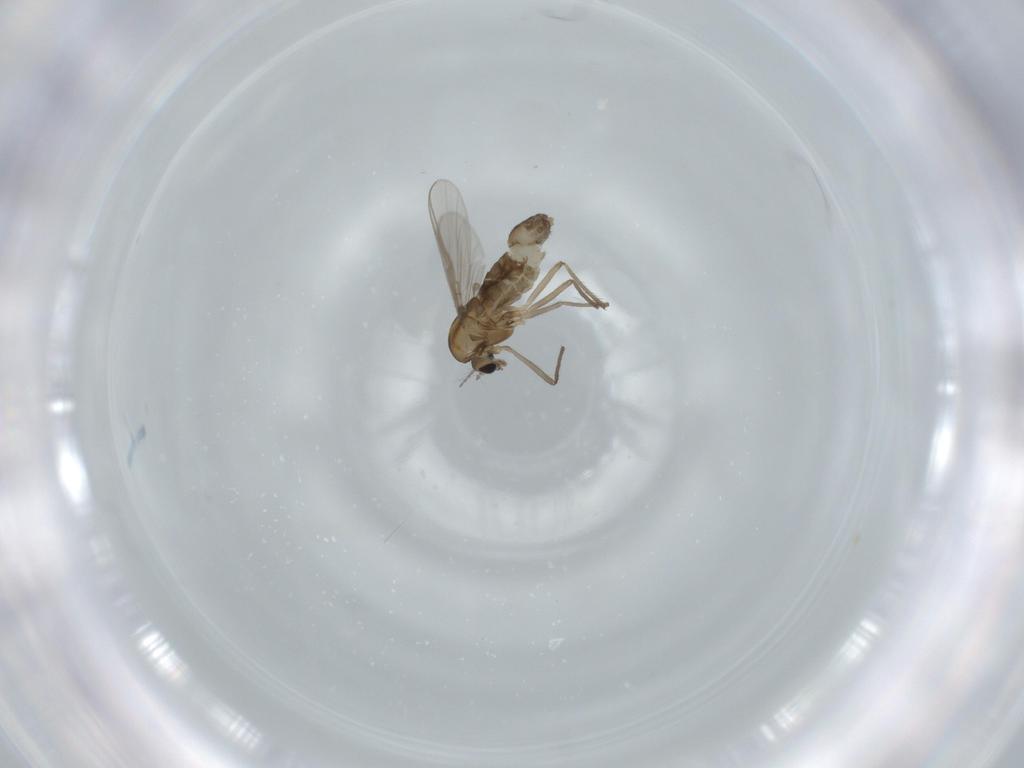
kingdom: Animalia
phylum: Arthropoda
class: Insecta
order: Diptera
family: Chironomidae
